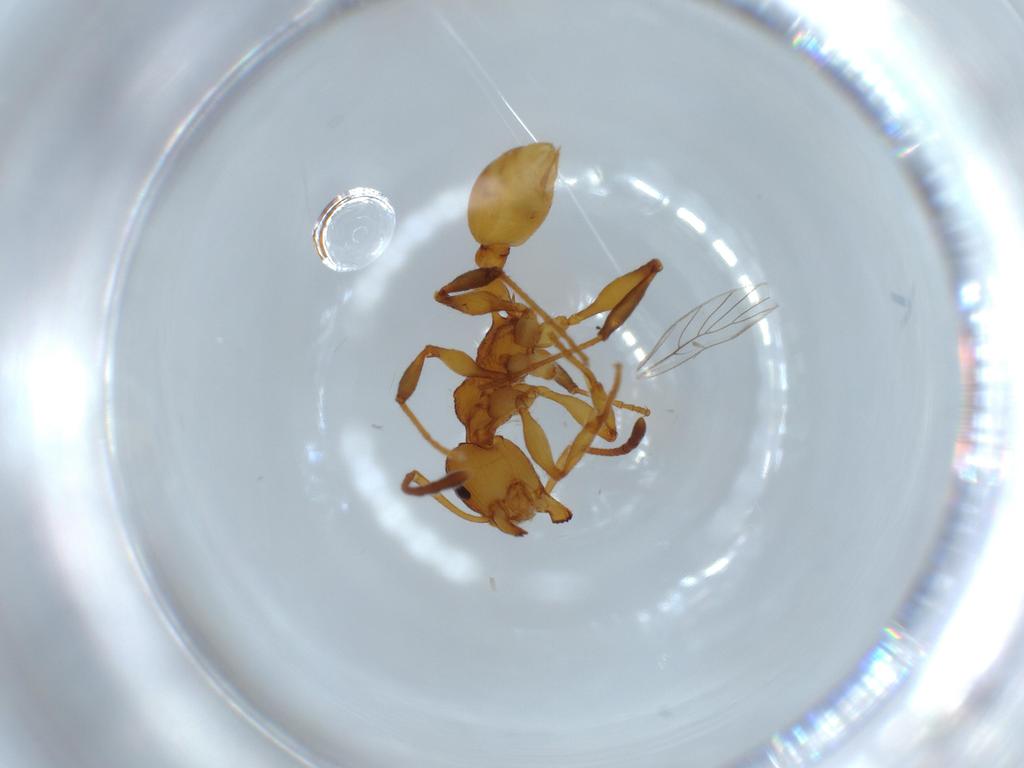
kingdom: Animalia
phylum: Arthropoda
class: Insecta
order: Hymenoptera
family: Formicidae
